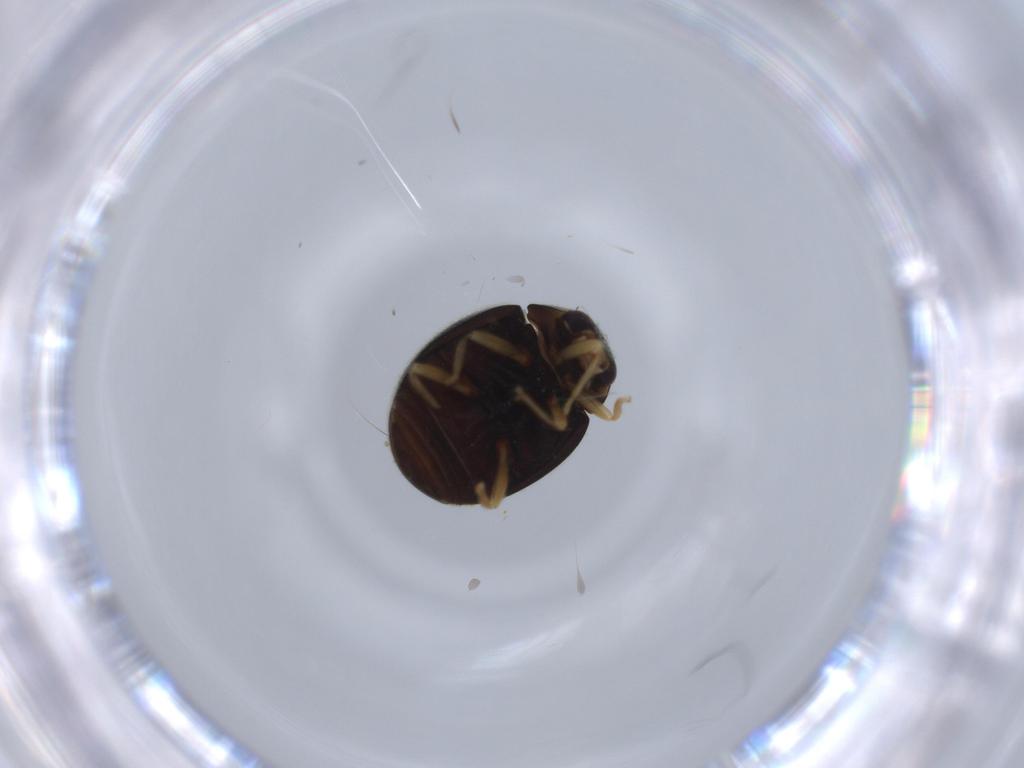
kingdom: Animalia
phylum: Arthropoda
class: Insecta
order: Coleoptera
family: Coccinellidae
